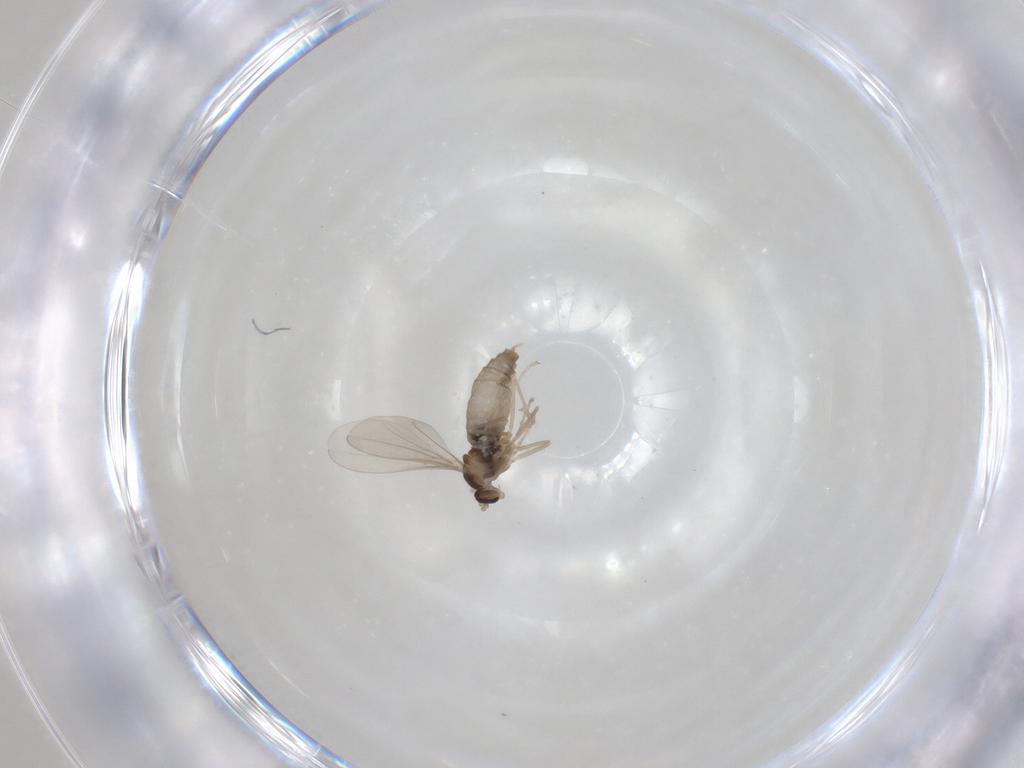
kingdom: Animalia
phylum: Arthropoda
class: Insecta
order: Diptera
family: Cecidomyiidae
